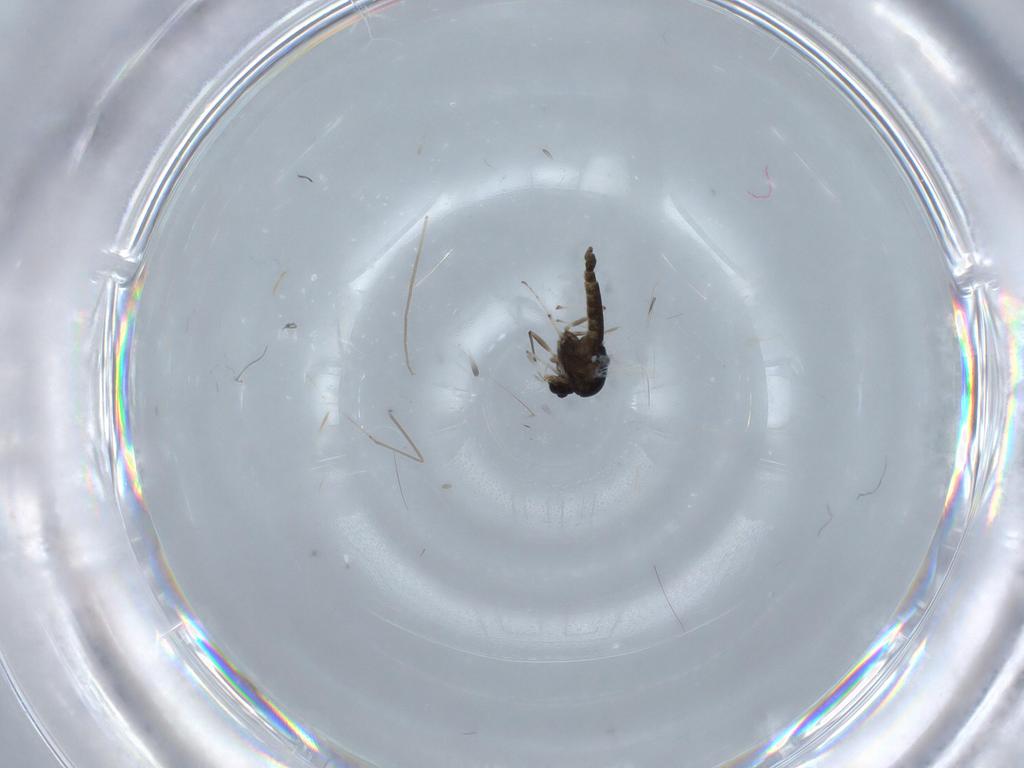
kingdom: Animalia
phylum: Arthropoda
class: Insecta
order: Diptera
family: Chironomidae
